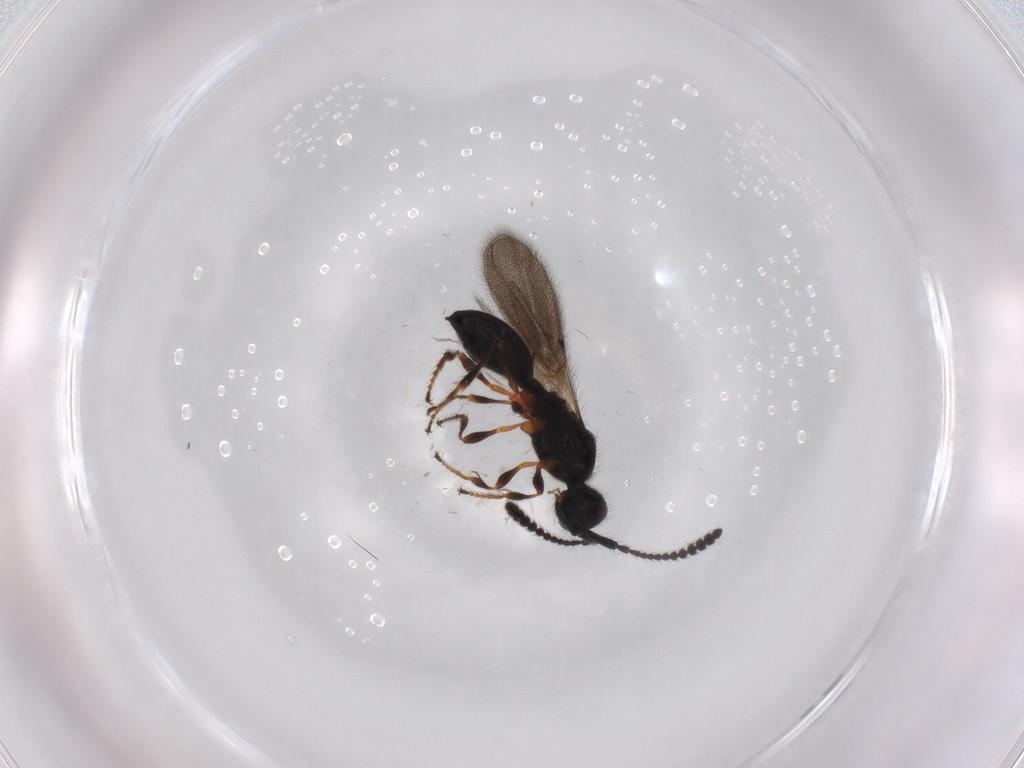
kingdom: Animalia
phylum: Arthropoda
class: Insecta
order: Hymenoptera
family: Diapriidae
